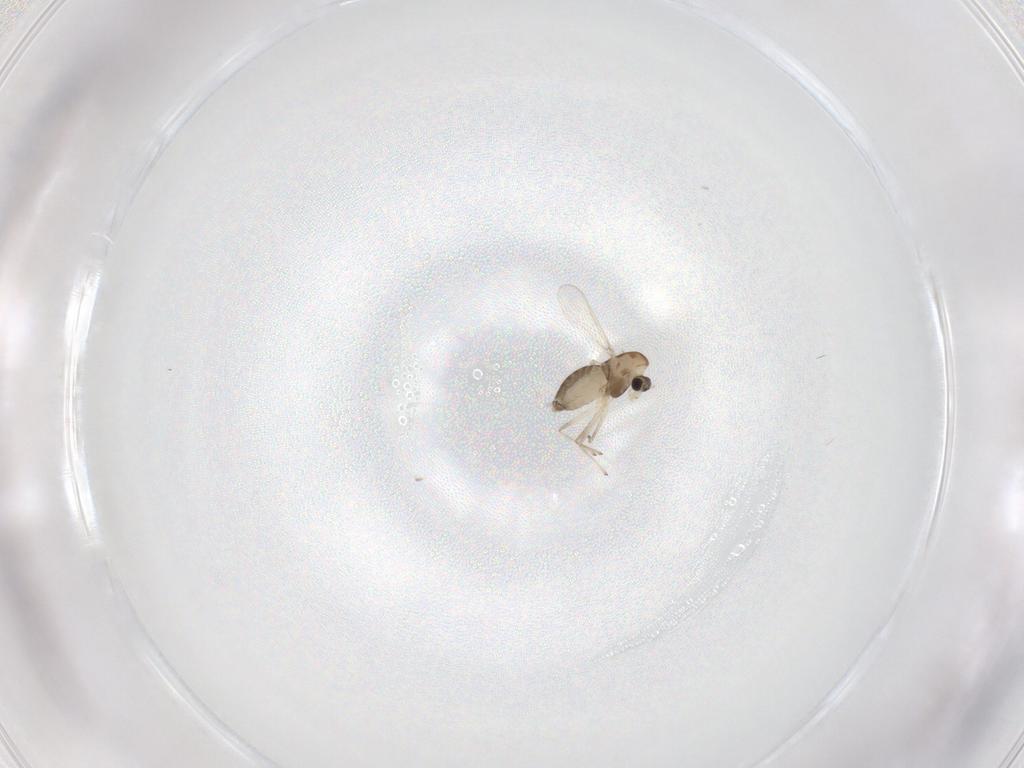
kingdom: Animalia
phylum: Arthropoda
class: Insecta
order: Diptera
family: Chironomidae
